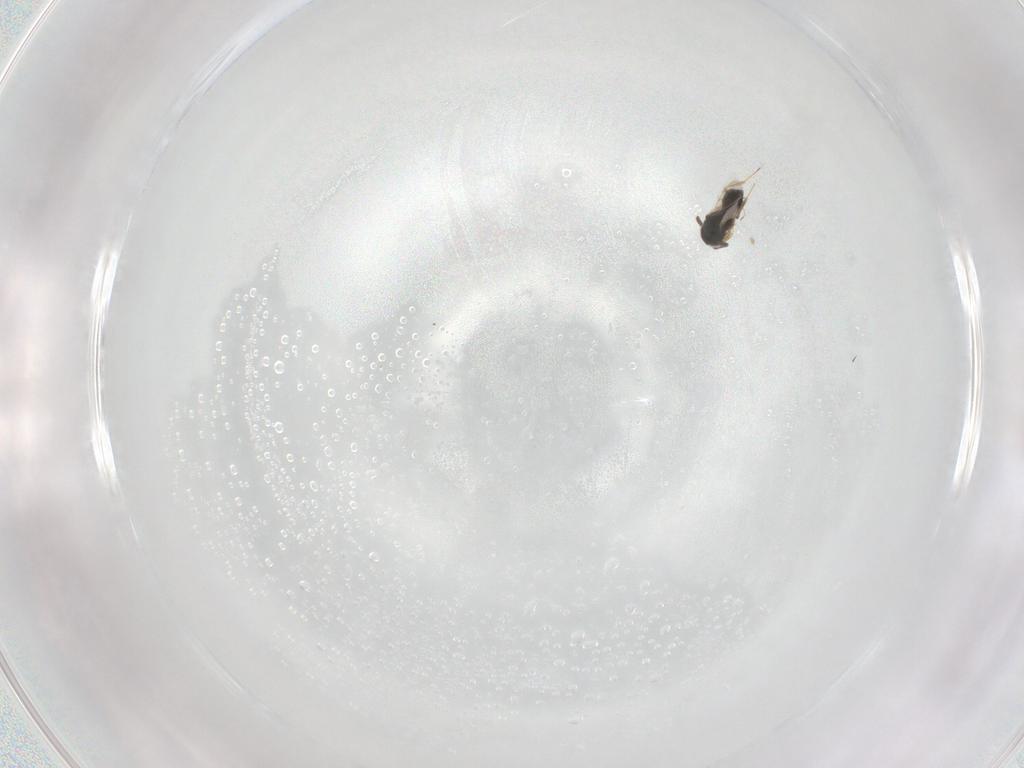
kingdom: Animalia
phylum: Arthropoda
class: Insecta
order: Hymenoptera
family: Scelionidae
